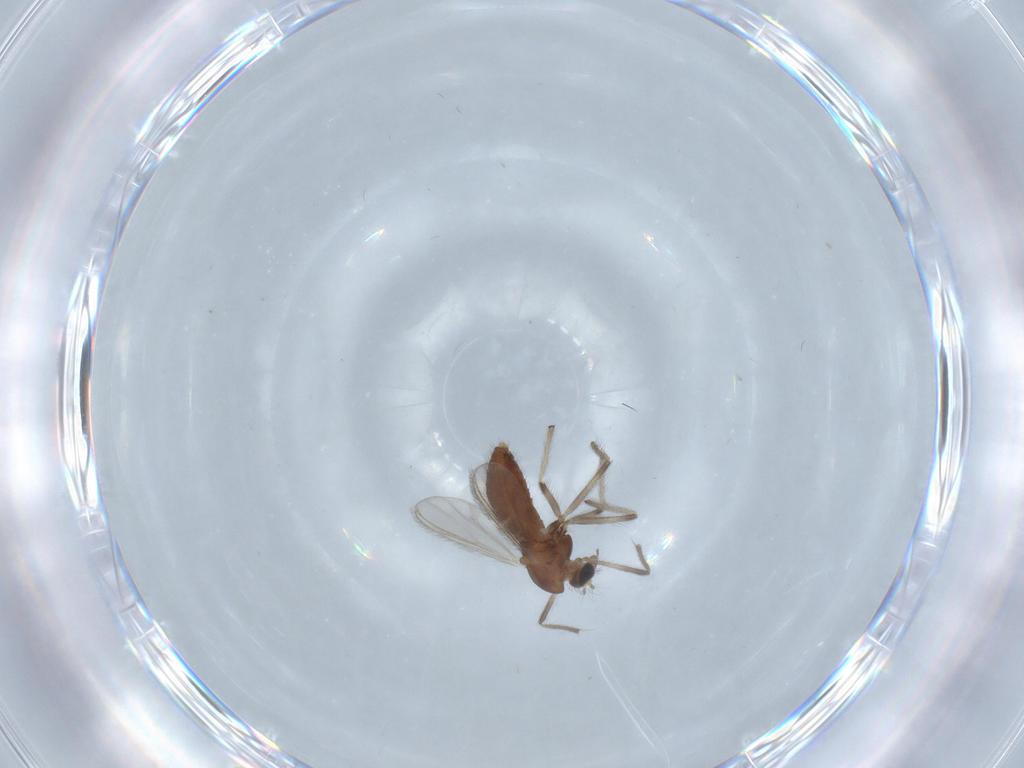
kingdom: Animalia
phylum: Arthropoda
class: Insecta
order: Diptera
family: Chironomidae
